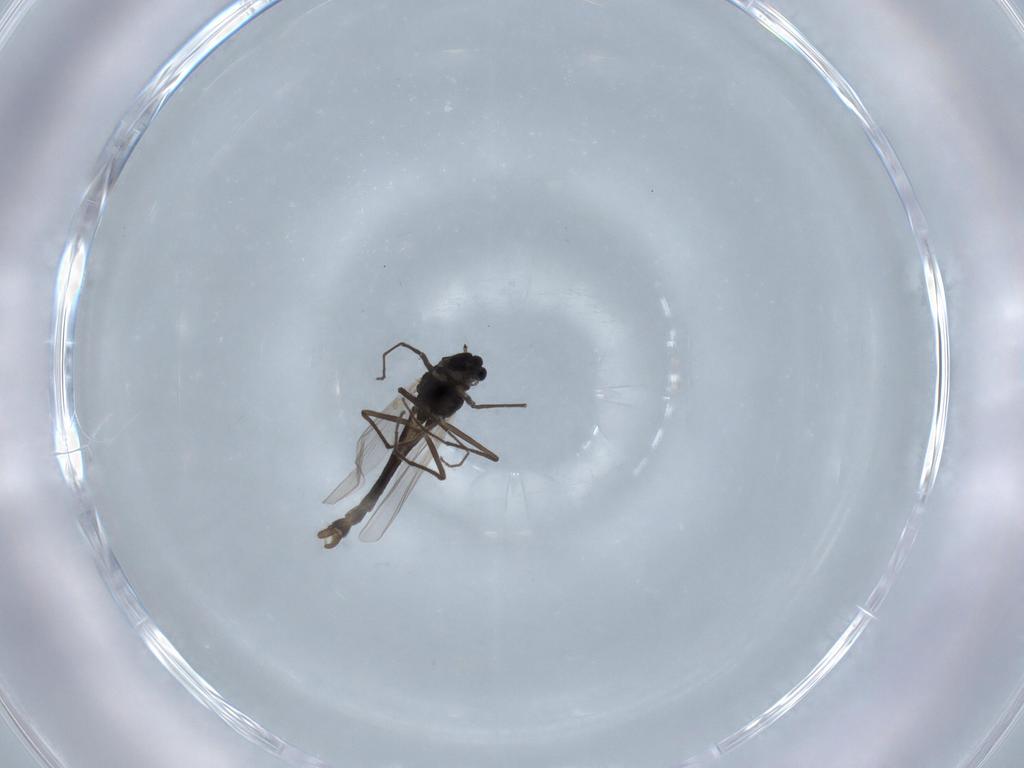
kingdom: Animalia
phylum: Arthropoda
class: Insecta
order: Diptera
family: Chironomidae
